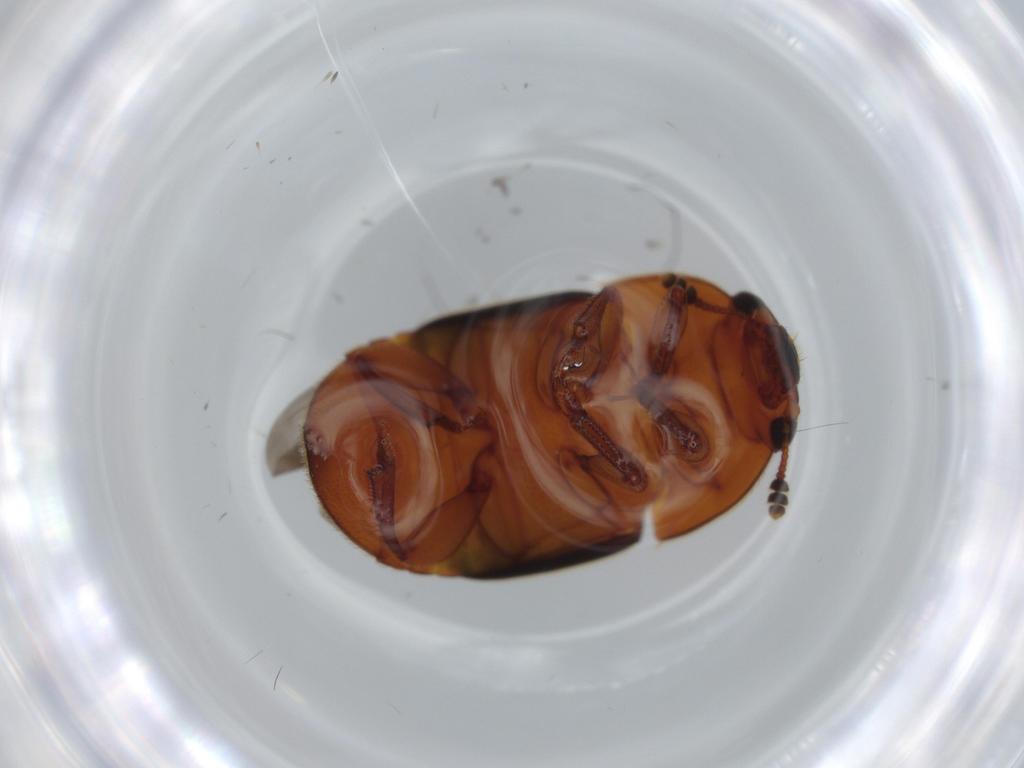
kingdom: Animalia
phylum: Arthropoda
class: Insecta
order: Coleoptera
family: Nitidulidae
